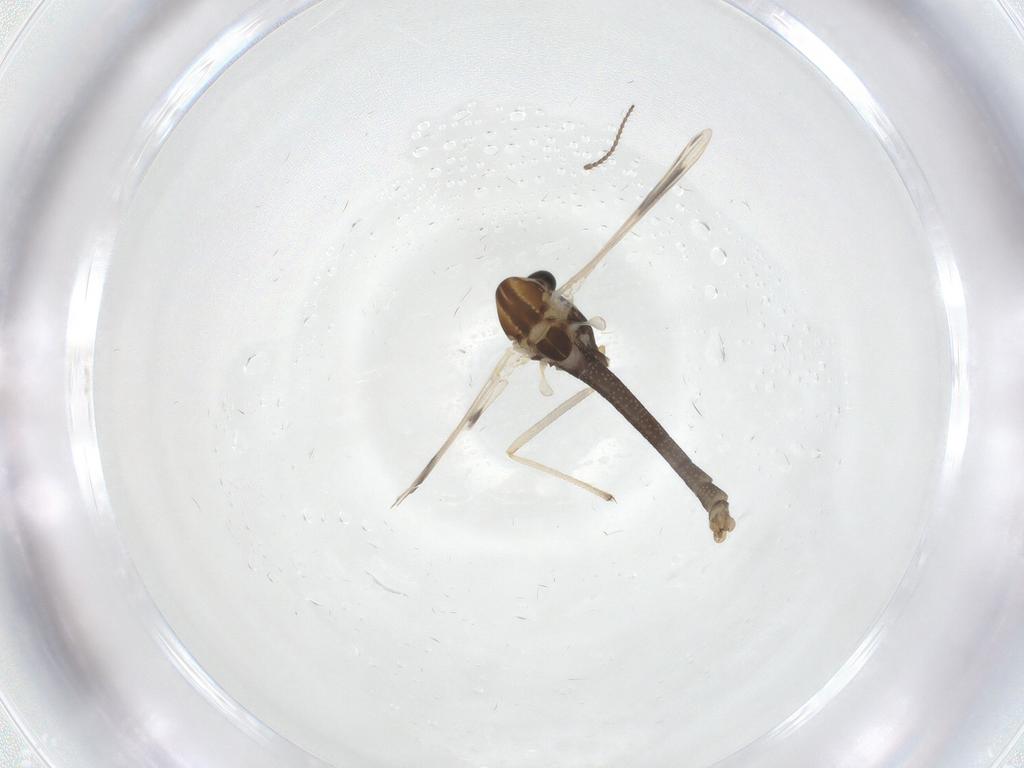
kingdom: Animalia
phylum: Arthropoda
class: Insecta
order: Diptera
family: Chironomidae
